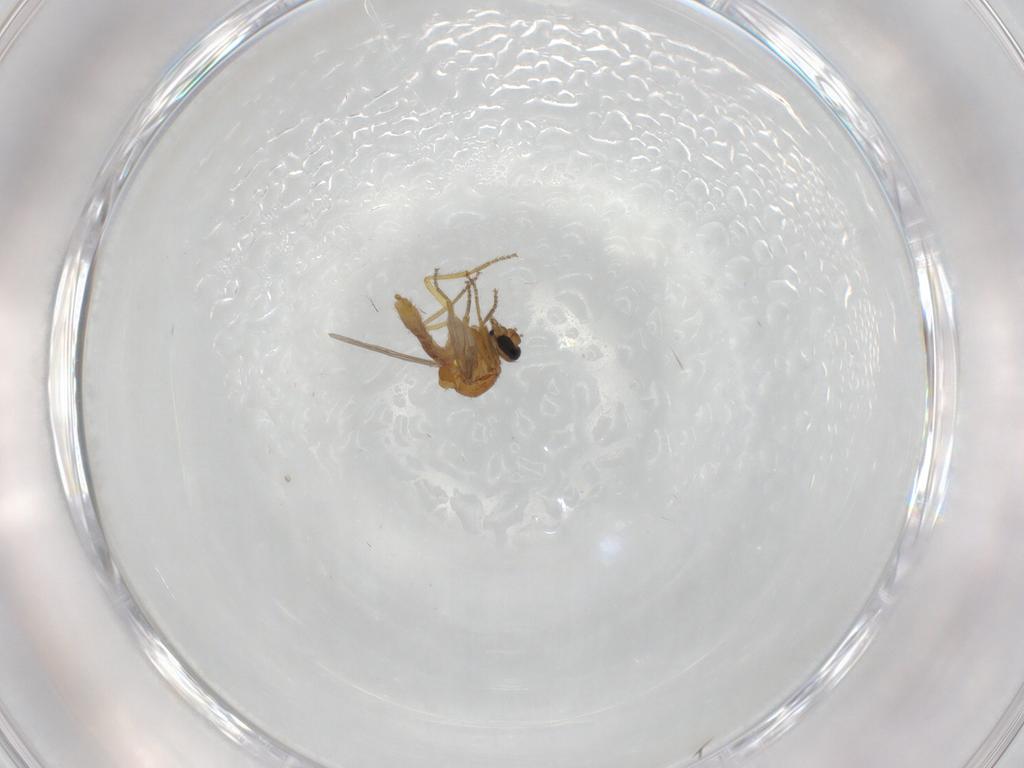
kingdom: Animalia
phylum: Arthropoda
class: Insecta
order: Diptera
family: Ceratopogonidae
